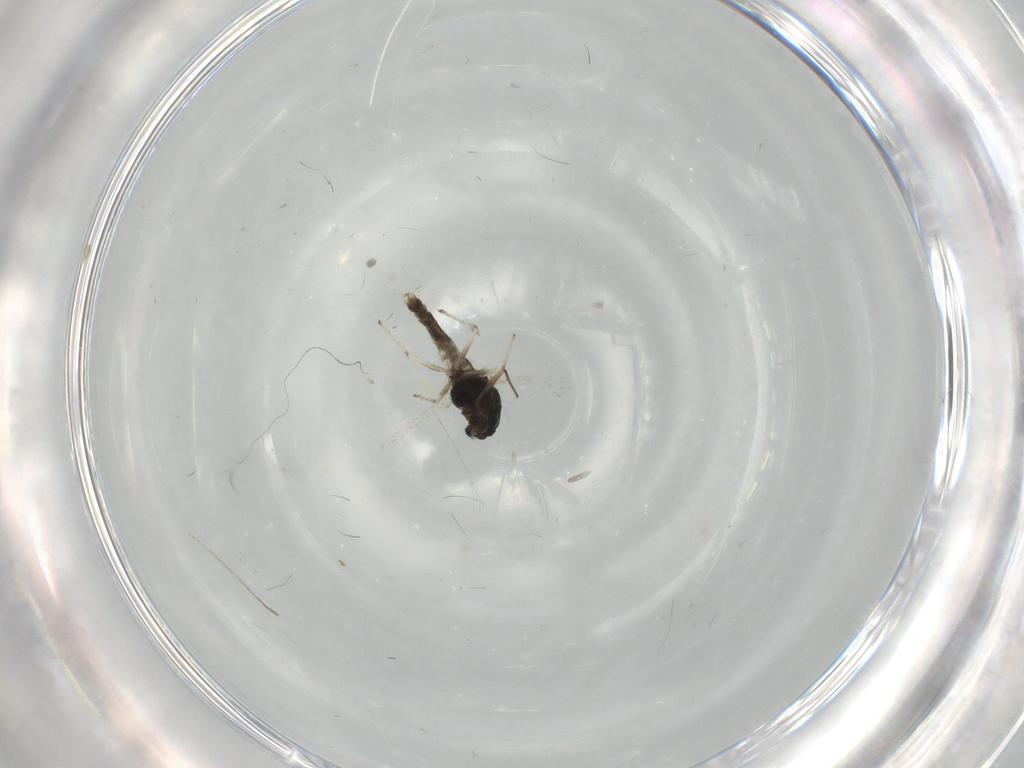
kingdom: Animalia
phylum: Arthropoda
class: Insecta
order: Diptera
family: Chironomidae
